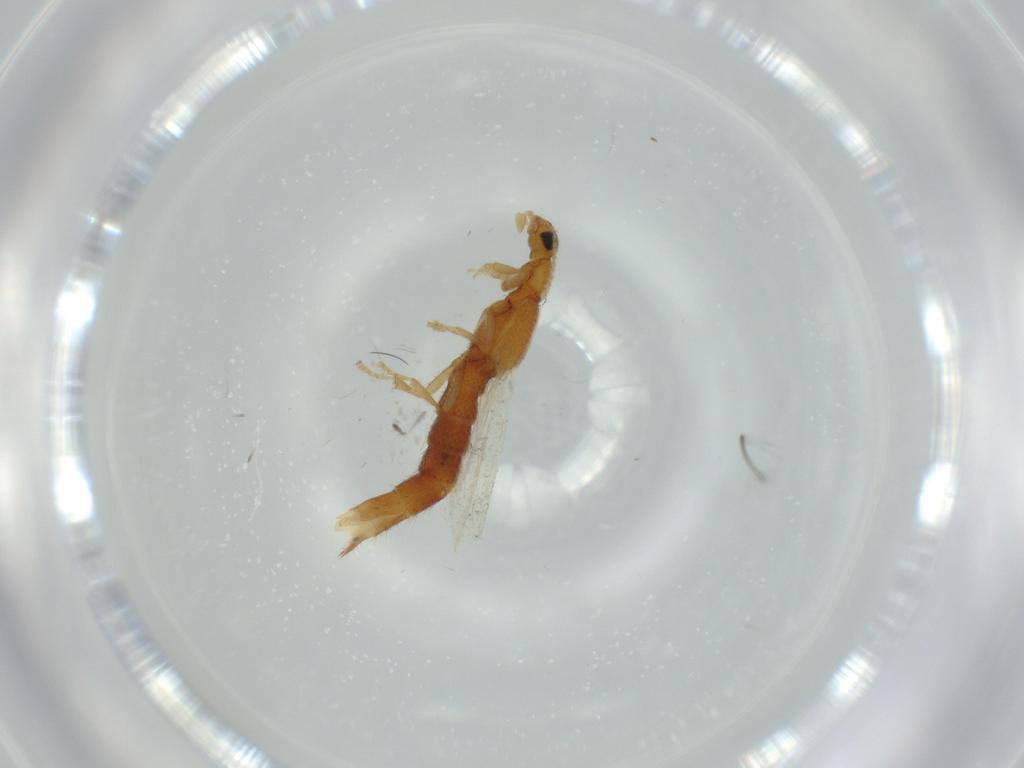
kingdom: Animalia
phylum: Arthropoda
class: Insecta
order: Coleoptera
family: Staphylinidae
